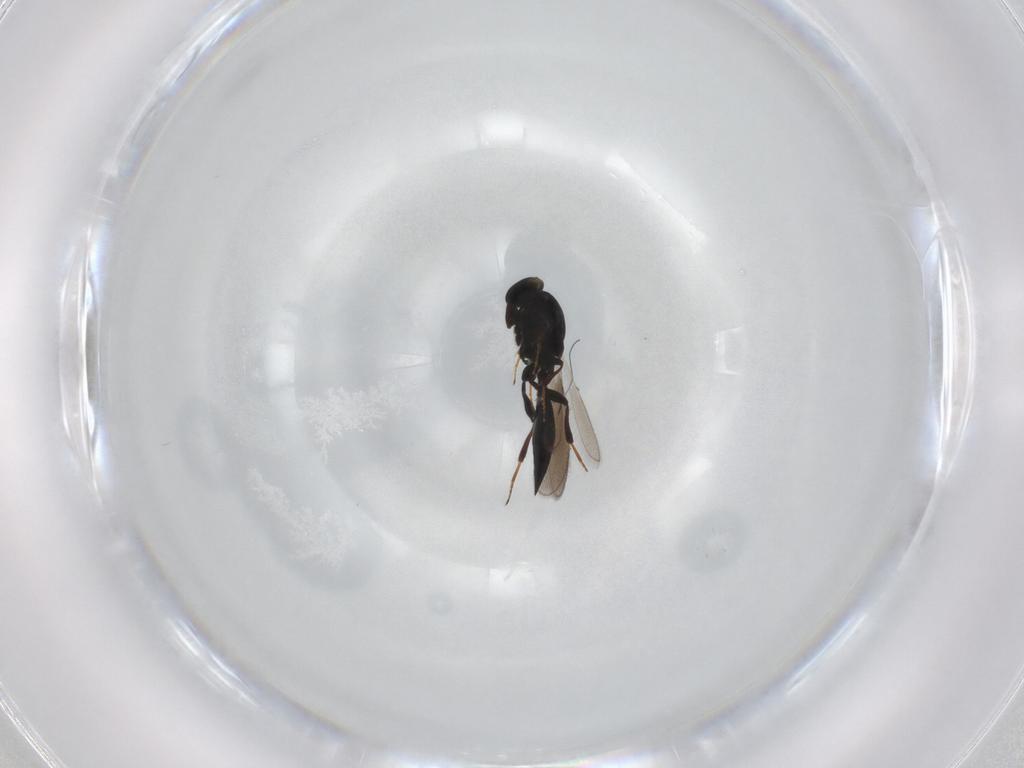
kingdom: Animalia
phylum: Arthropoda
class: Insecta
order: Hymenoptera
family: Platygastridae
